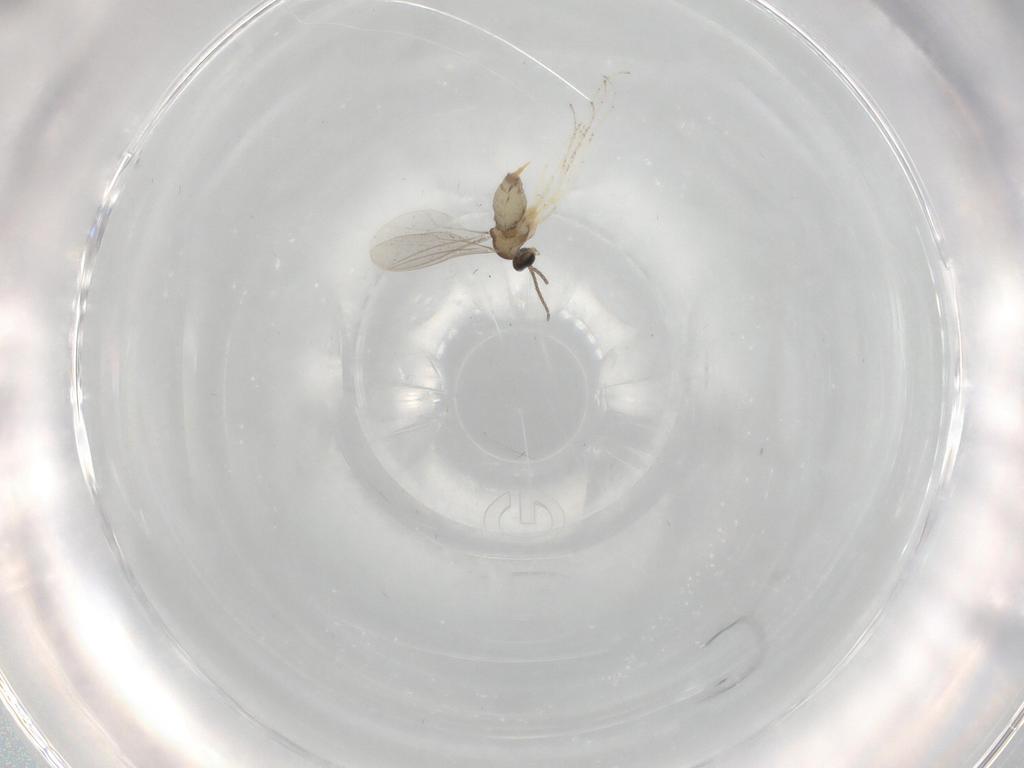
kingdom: Animalia
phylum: Arthropoda
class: Insecta
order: Diptera
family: Cecidomyiidae
